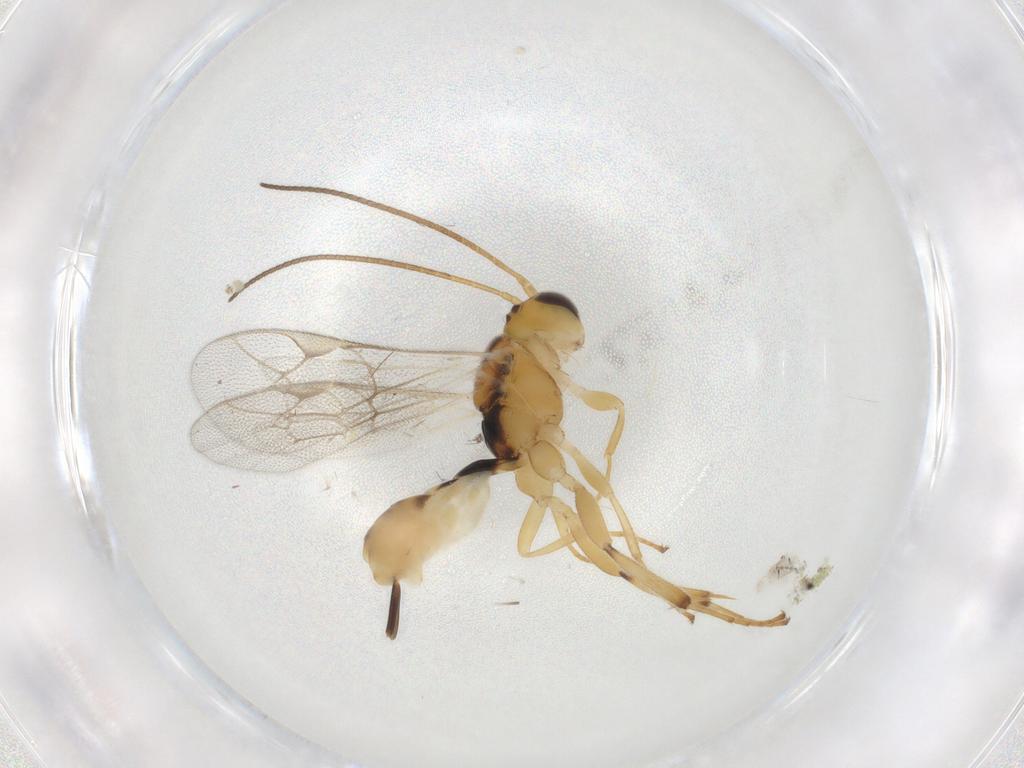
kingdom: Animalia
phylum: Arthropoda
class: Insecta
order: Hymenoptera
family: Ichneumonidae
